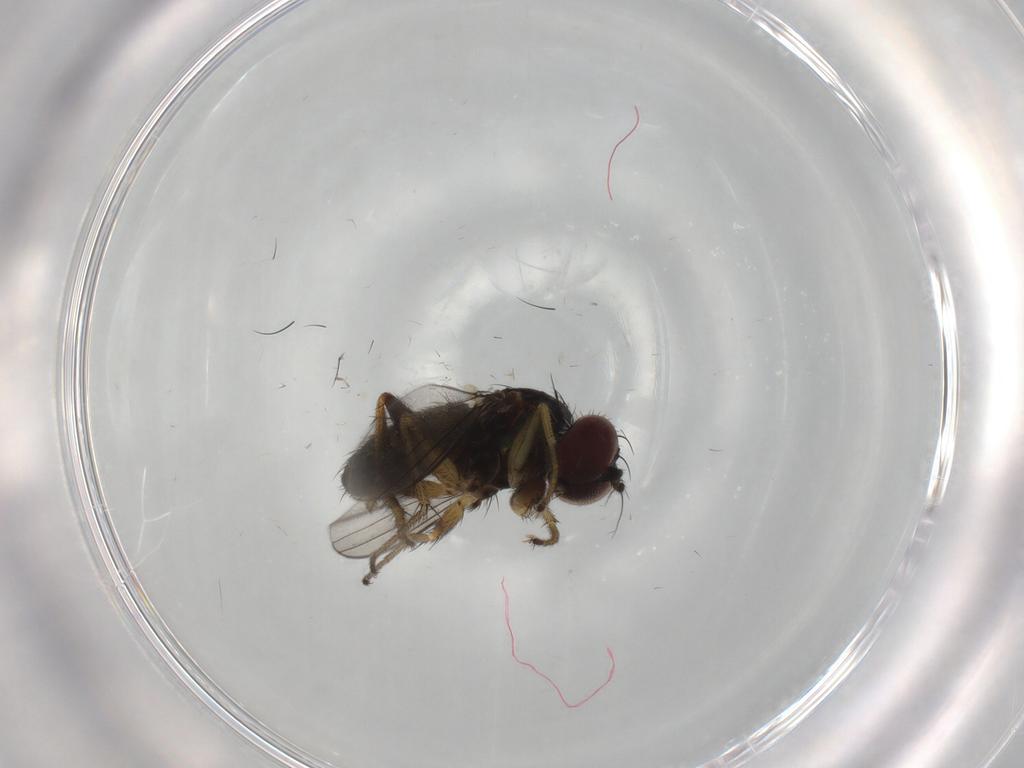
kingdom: Animalia
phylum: Arthropoda
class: Insecta
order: Diptera
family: Dolichopodidae
